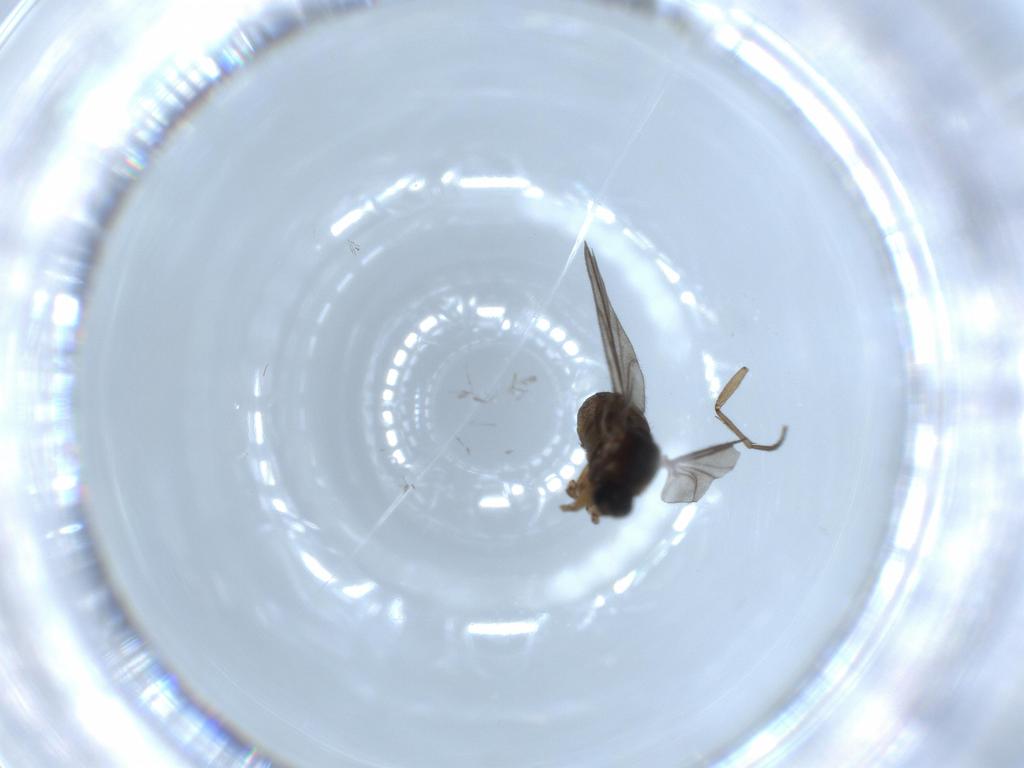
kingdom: Animalia
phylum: Arthropoda
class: Insecta
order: Diptera
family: Sciaridae
